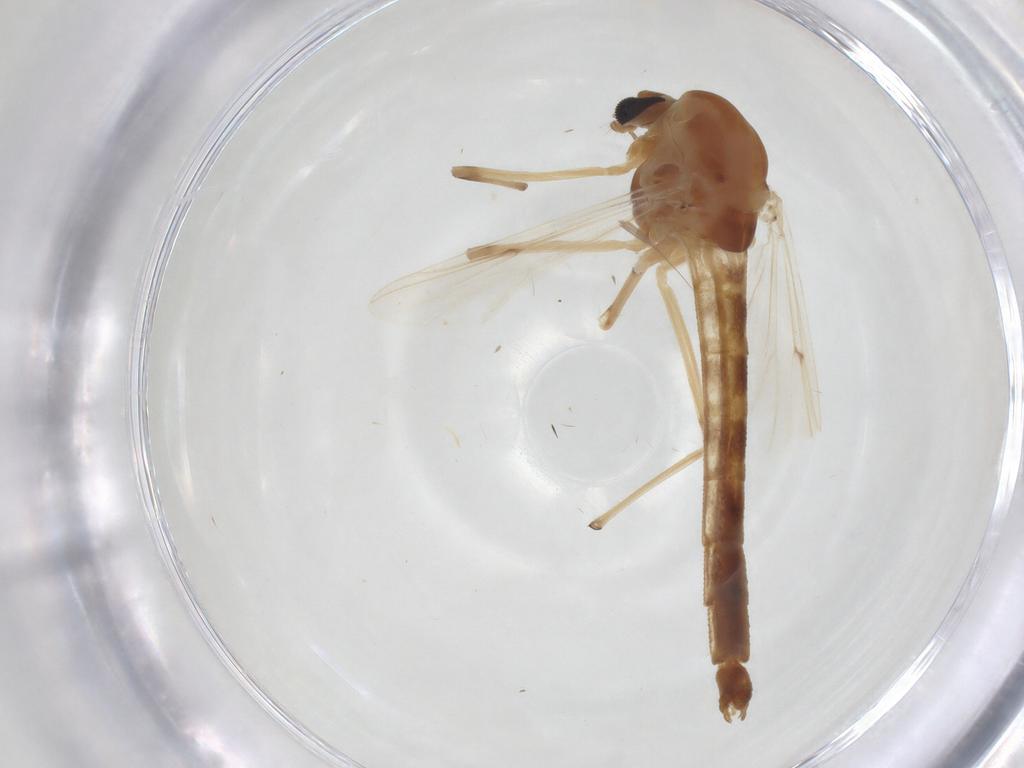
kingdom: Animalia
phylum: Arthropoda
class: Insecta
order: Diptera
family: Chironomidae
